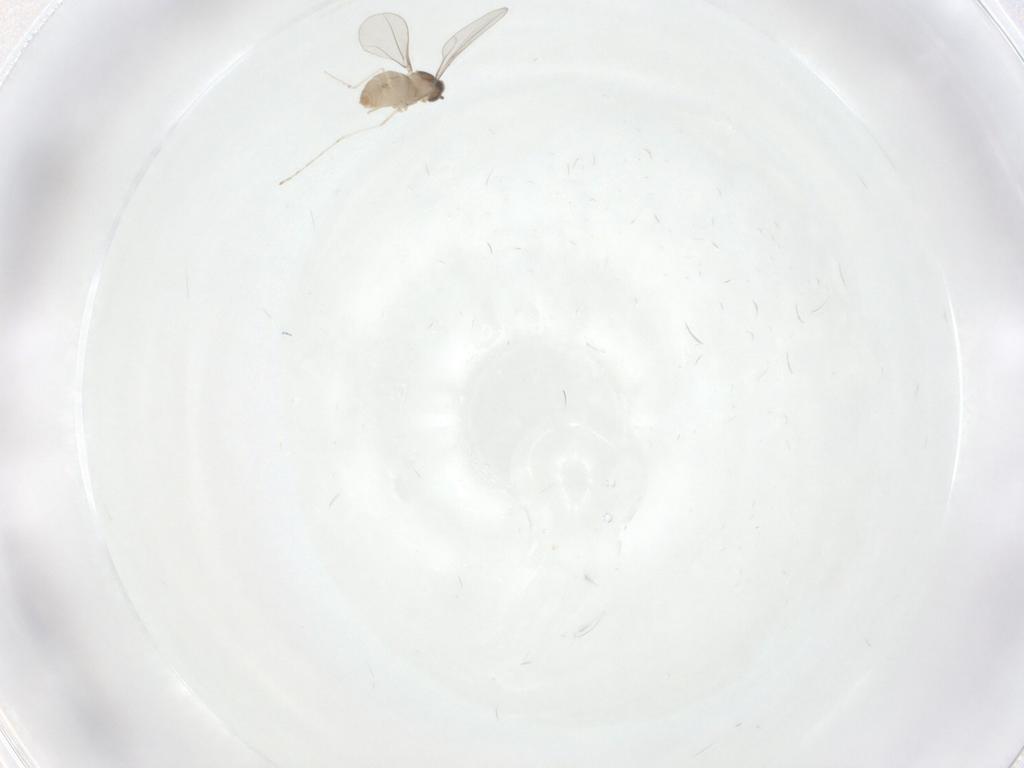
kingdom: Animalia
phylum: Arthropoda
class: Insecta
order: Diptera
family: Cecidomyiidae
